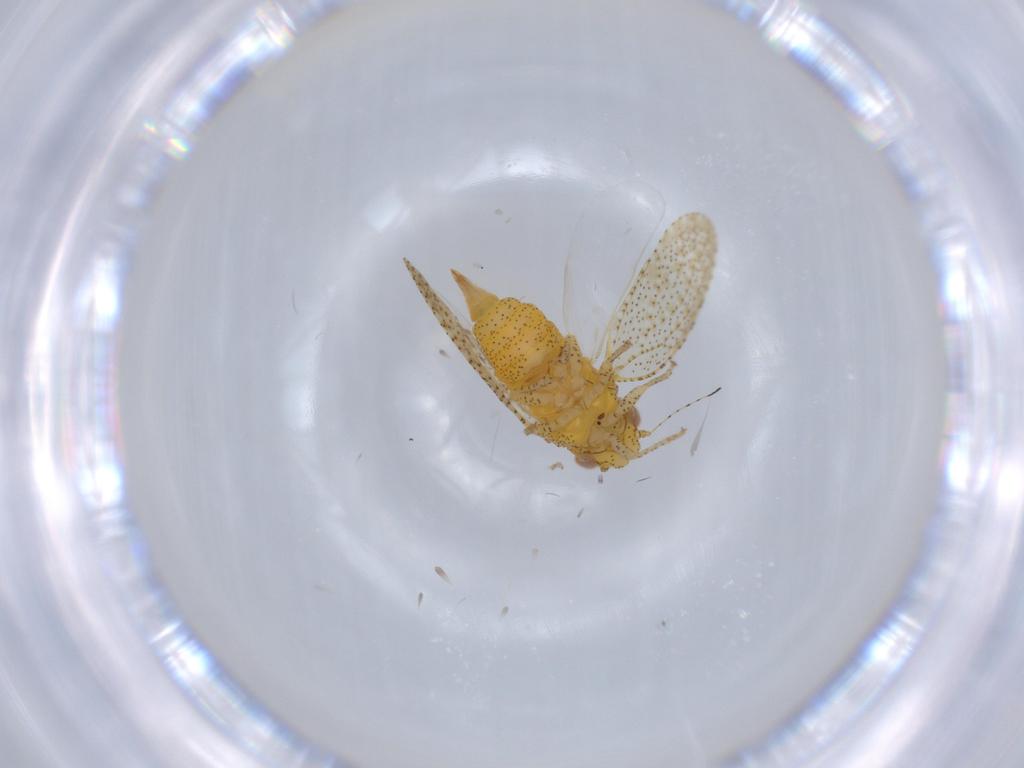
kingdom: Animalia
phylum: Arthropoda
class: Insecta
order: Hemiptera
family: Psyllidae
